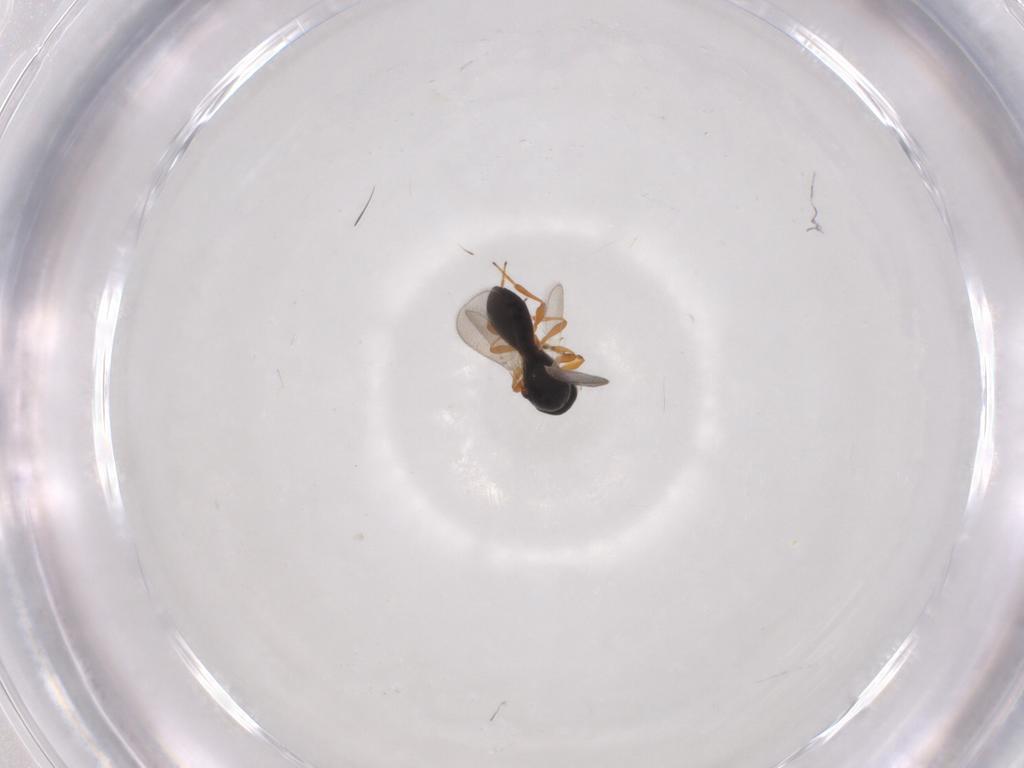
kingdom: Animalia
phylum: Arthropoda
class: Insecta
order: Hymenoptera
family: Platygastridae
